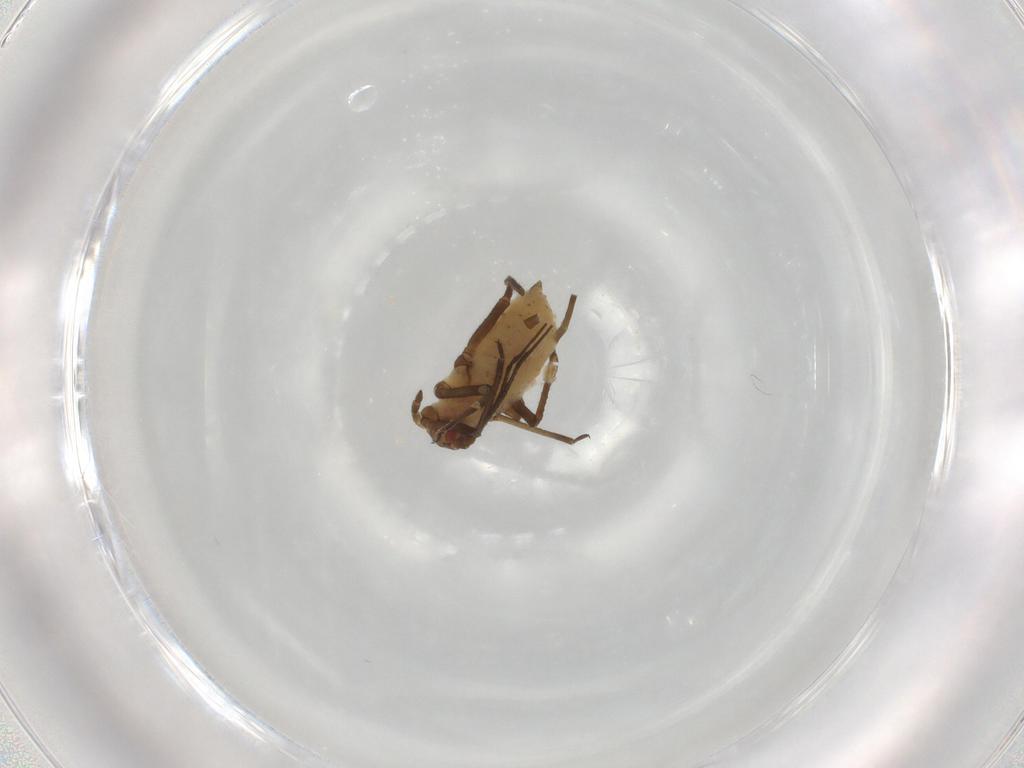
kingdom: Animalia
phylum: Arthropoda
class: Insecta
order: Hemiptera
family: Aphididae
